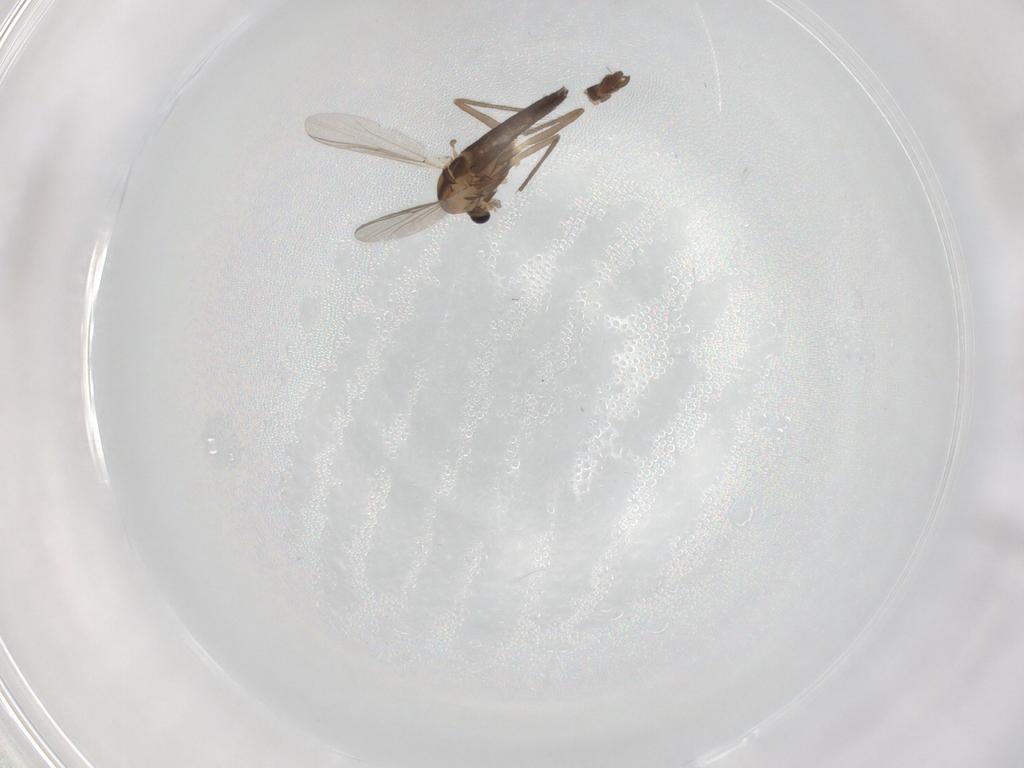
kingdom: Animalia
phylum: Arthropoda
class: Insecta
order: Diptera
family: Chironomidae
